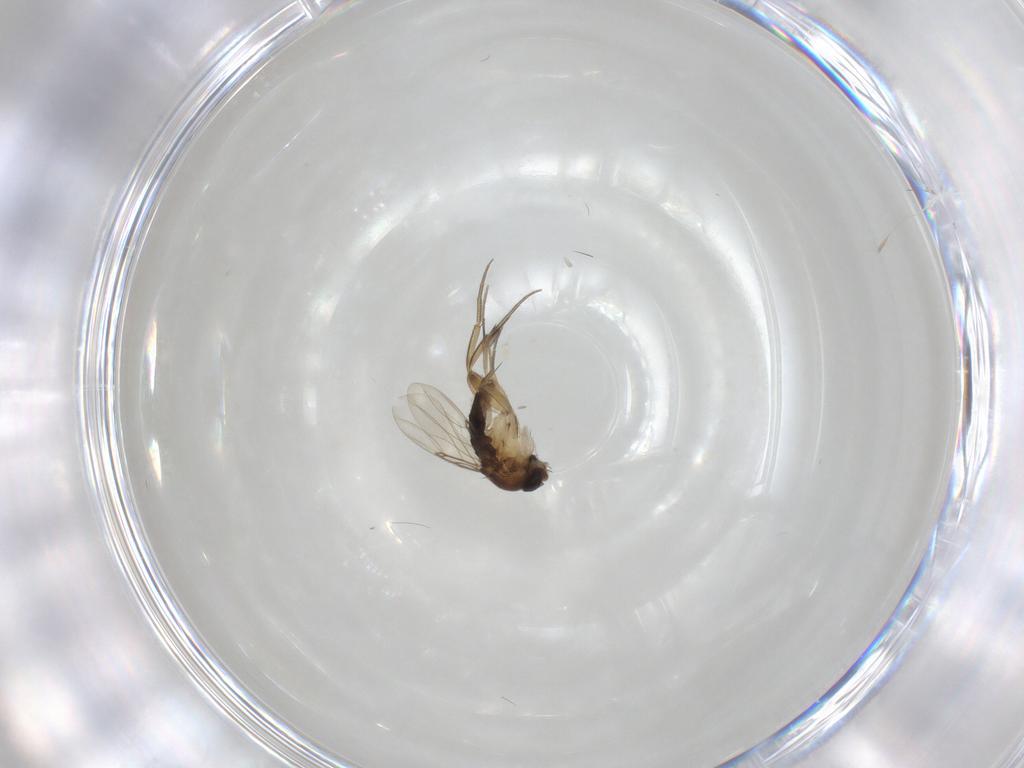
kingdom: Animalia
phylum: Arthropoda
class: Insecta
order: Diptera
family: Phoridae
